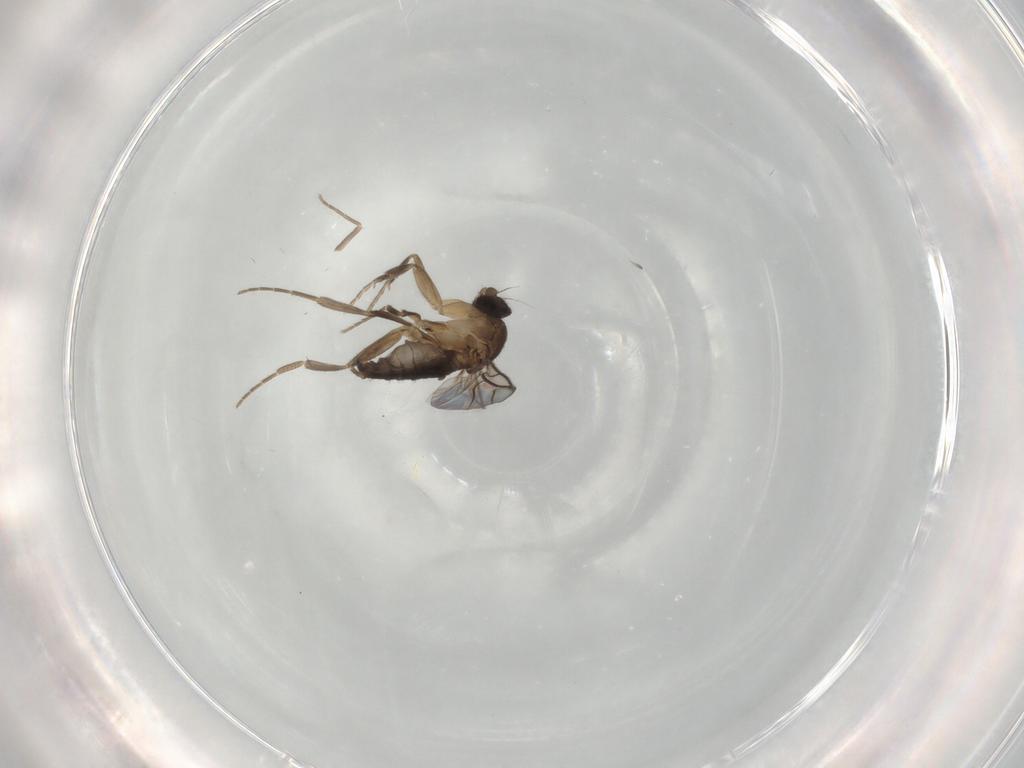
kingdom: Animalia
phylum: Arthropoda
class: Insecta
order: Diptera
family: Phoridae
